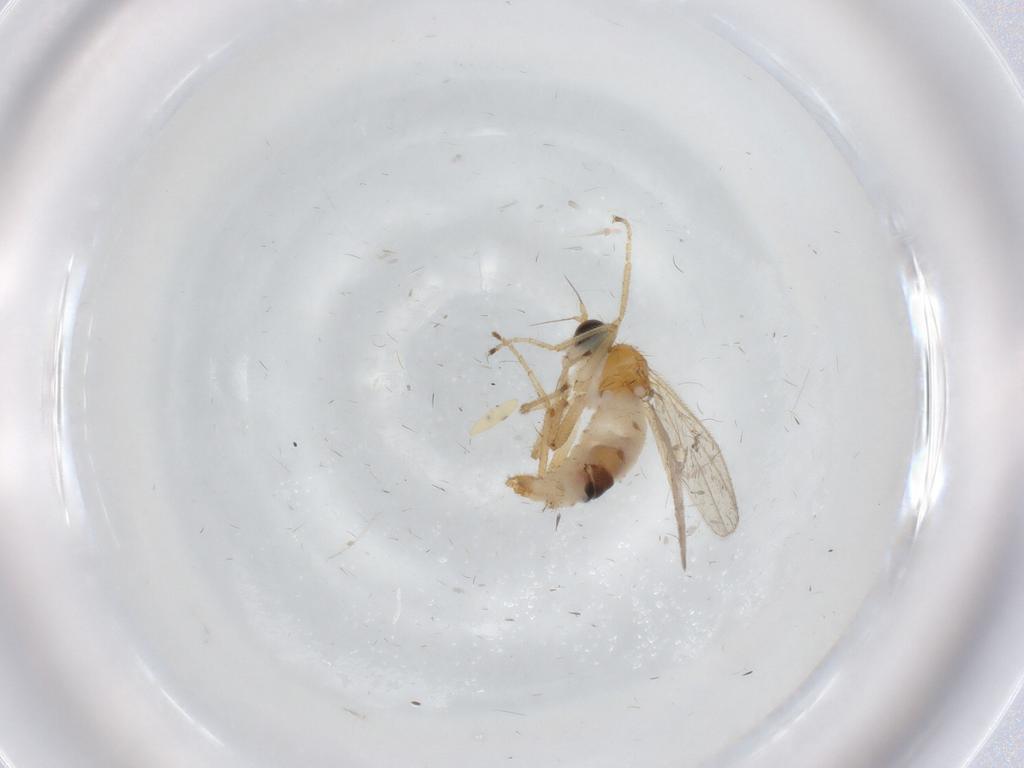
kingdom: Animalia
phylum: Arthropoda
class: Insecta
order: Diptera
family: Hybotidae
